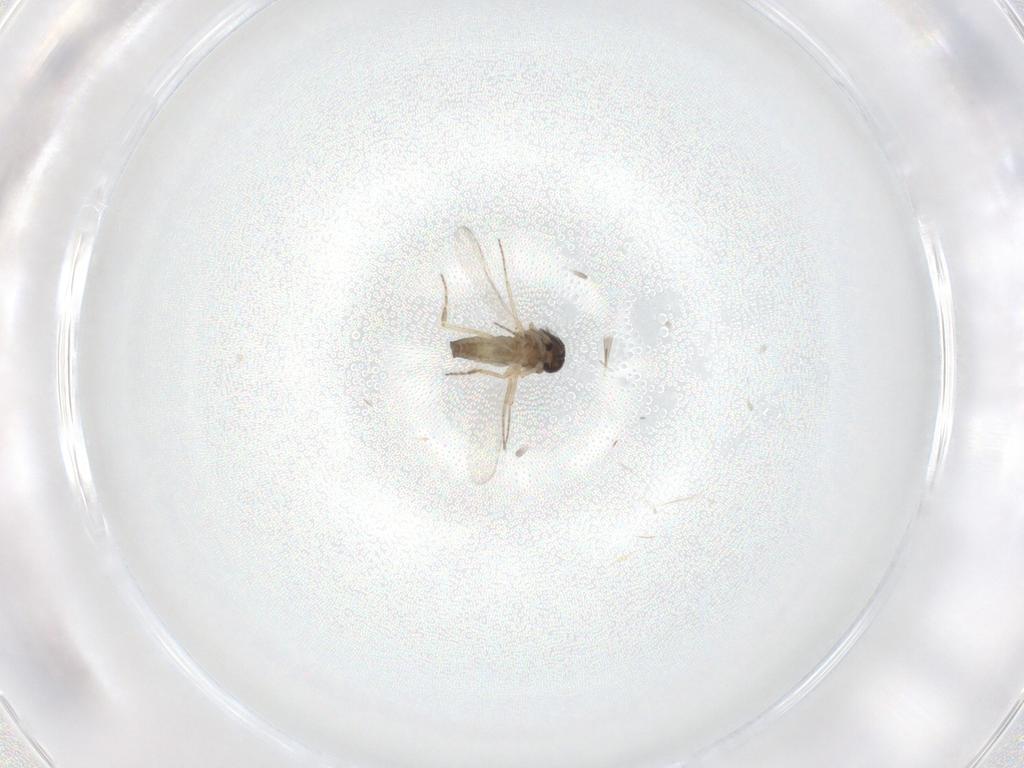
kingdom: Animalia
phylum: Arthropoda
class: Insecta
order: Diptera
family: Ceratopogonidae
